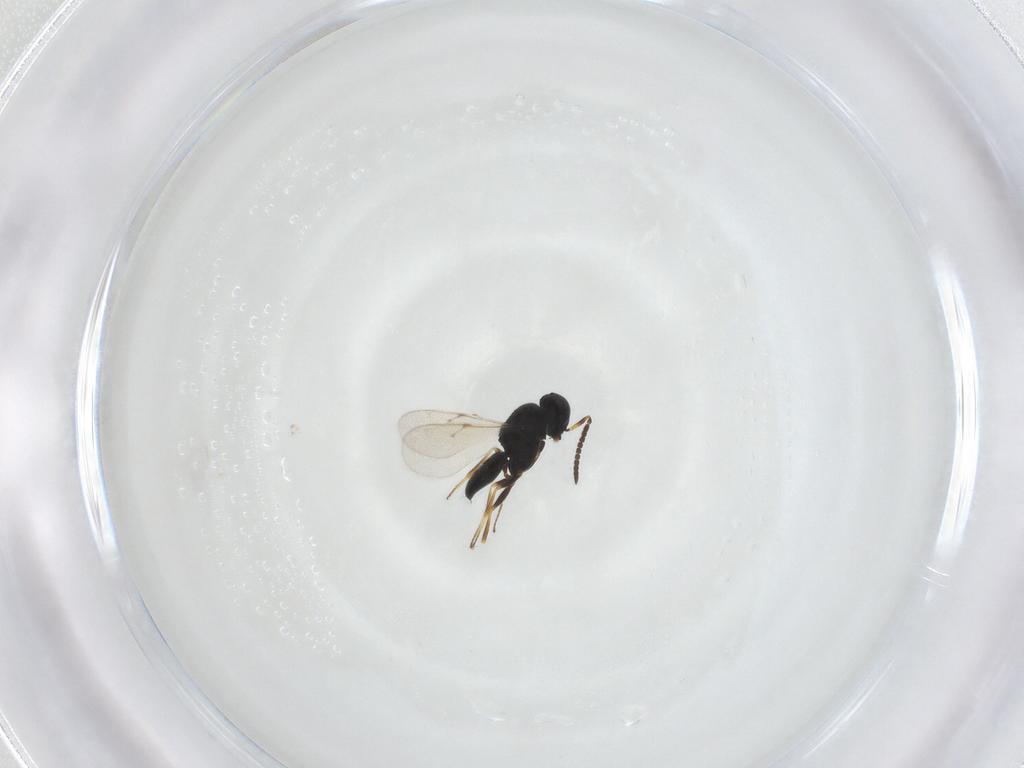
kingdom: Animalia
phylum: Arthropoda
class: Insecta
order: Hymenoptera
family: Scelionidae
